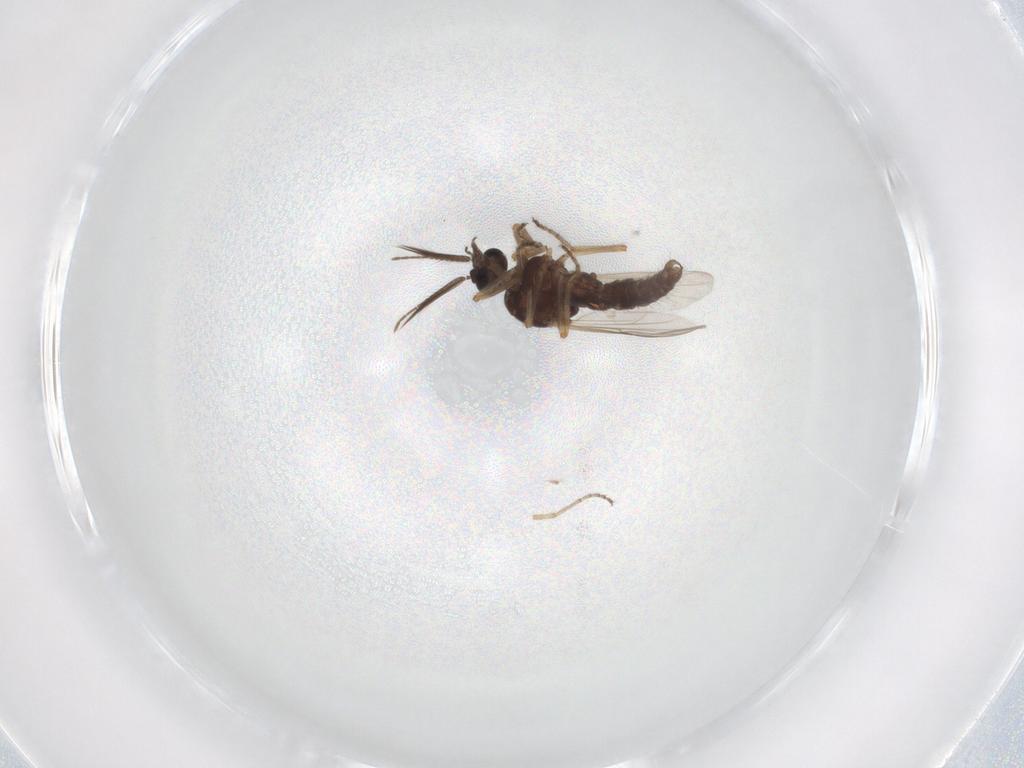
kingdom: Animalia
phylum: Arthropoda
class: Insecta
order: Diptera
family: Ceratopogonidae
